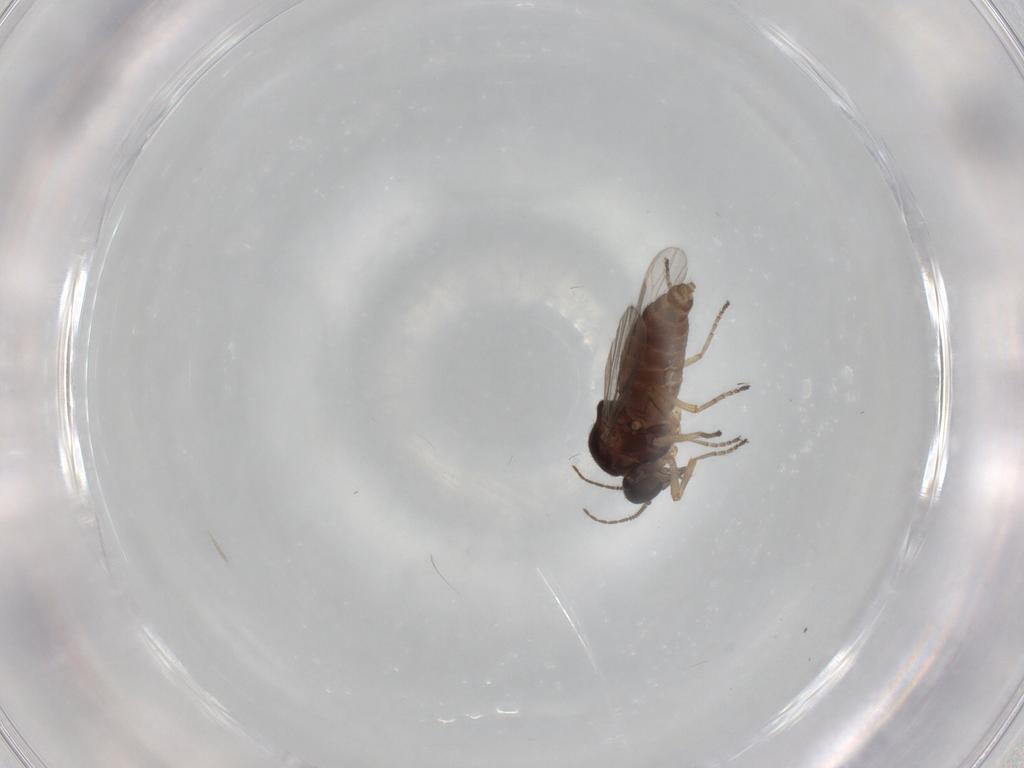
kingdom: Animalia
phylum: Arthropoda
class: Insecta
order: Diptera
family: Ceratopogonidae
